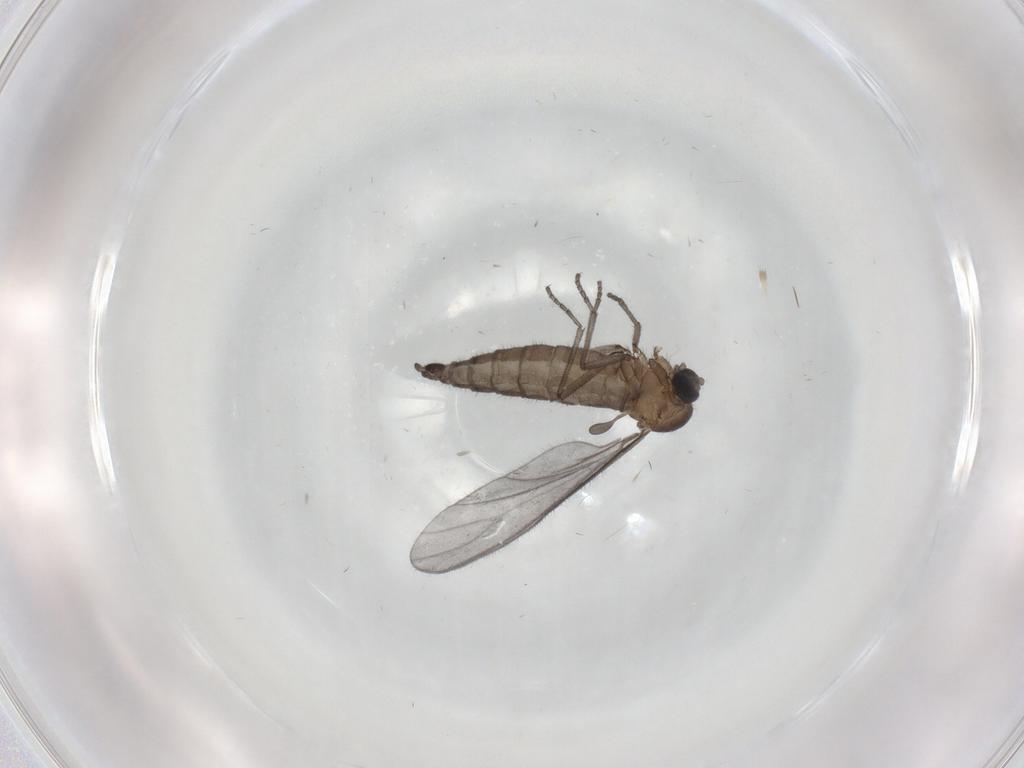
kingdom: Animalia
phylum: Arthropoda
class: Insecta
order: Diptera
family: Sciaridae
